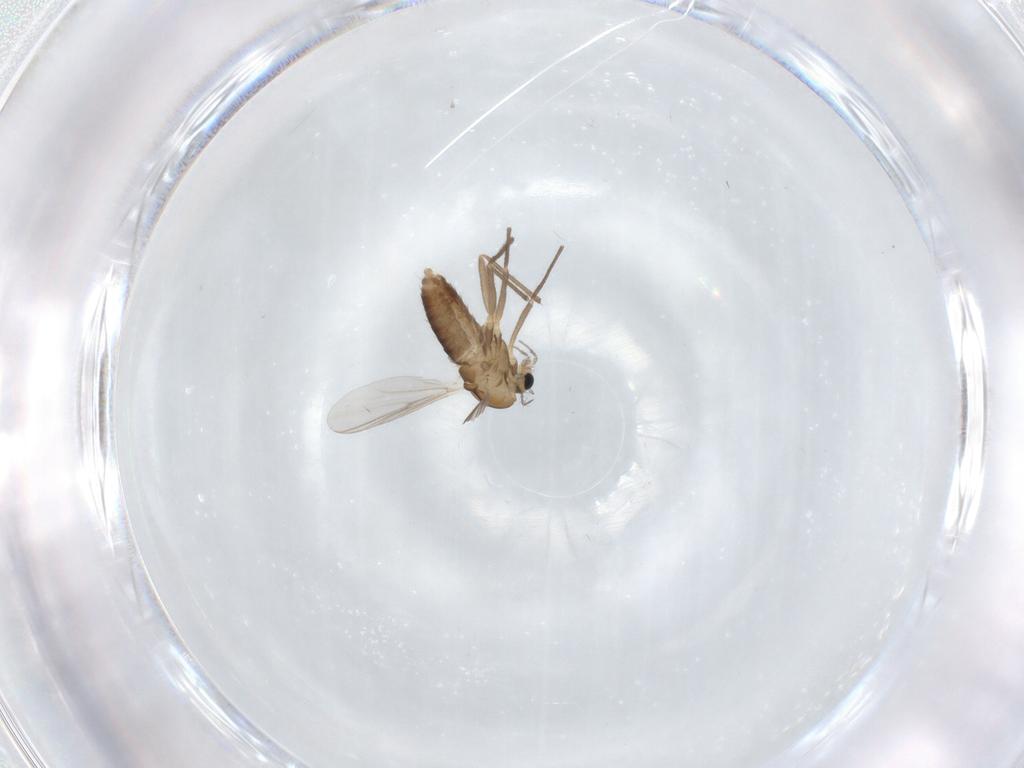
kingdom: Animalia
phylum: Arthropoda
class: Insecta
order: Diptera
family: Chironomidae
